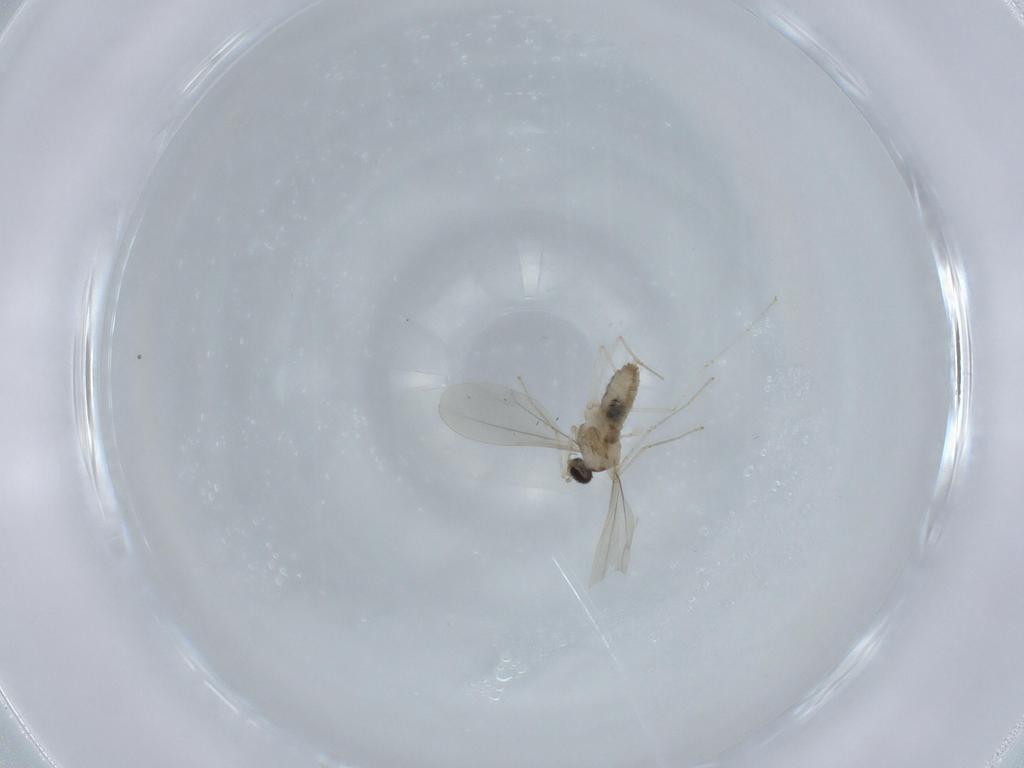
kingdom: Animalia
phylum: Arthropoda
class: Insecta
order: Diptera
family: Cecidomyiidae
